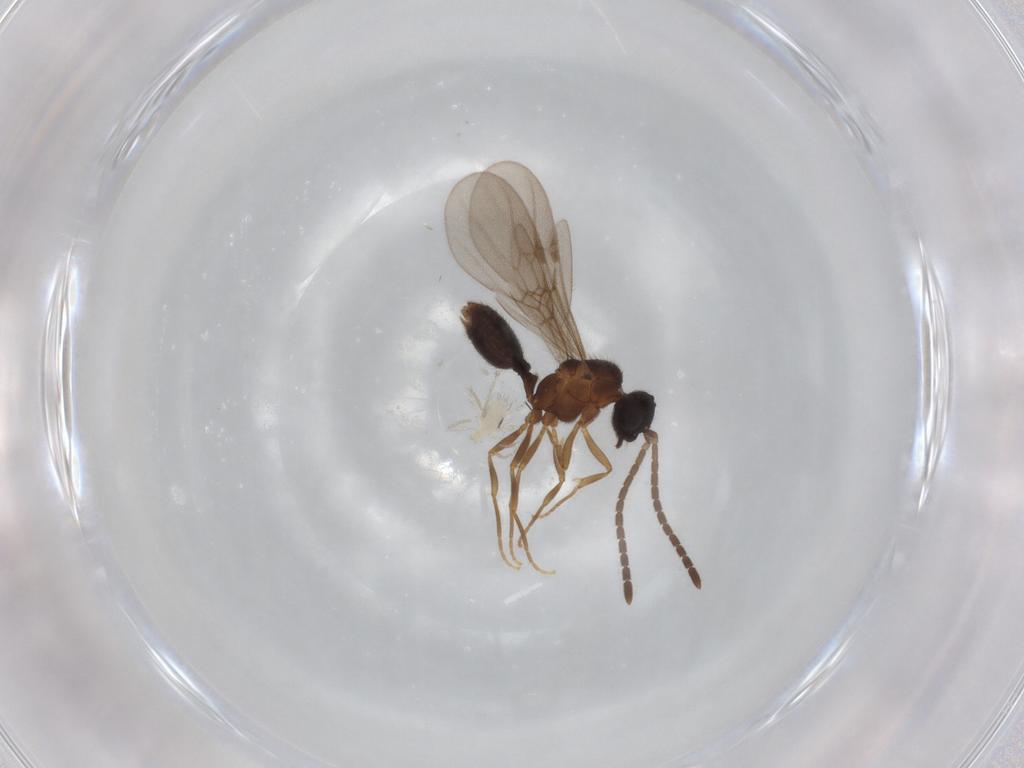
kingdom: Animalia
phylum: Arthropoda
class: Insecta
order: Hymenoptera
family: Formicidae
